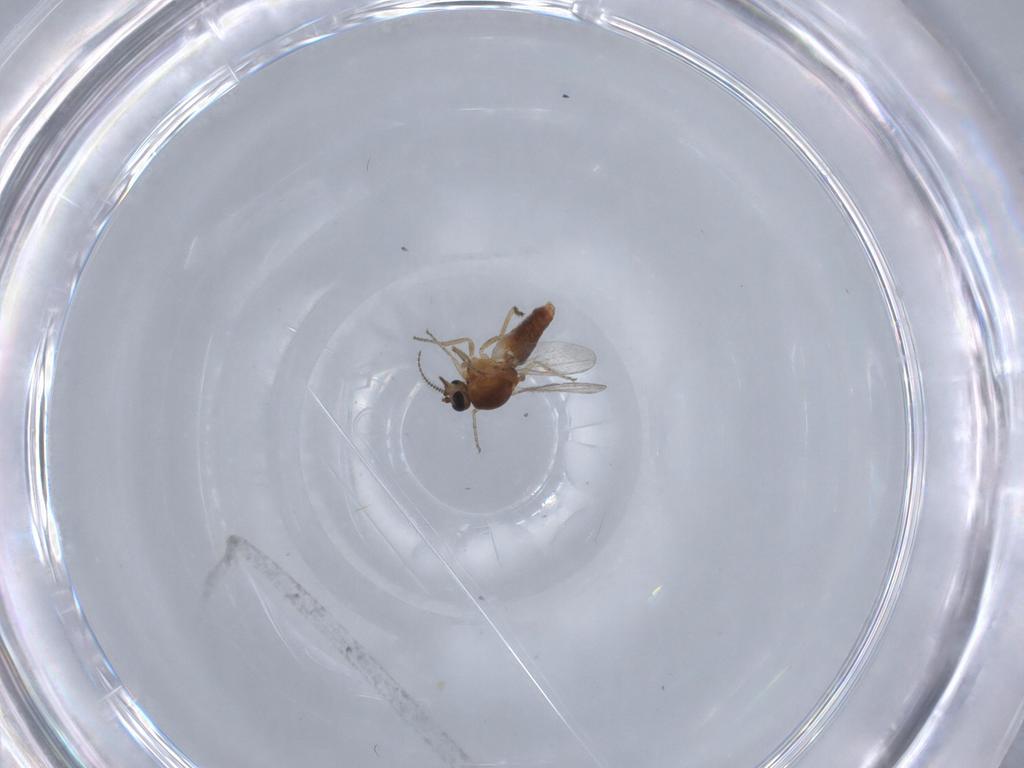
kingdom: Animalia
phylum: Arthropoda
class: Insecta
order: Diptera
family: Ceratopogonidae
